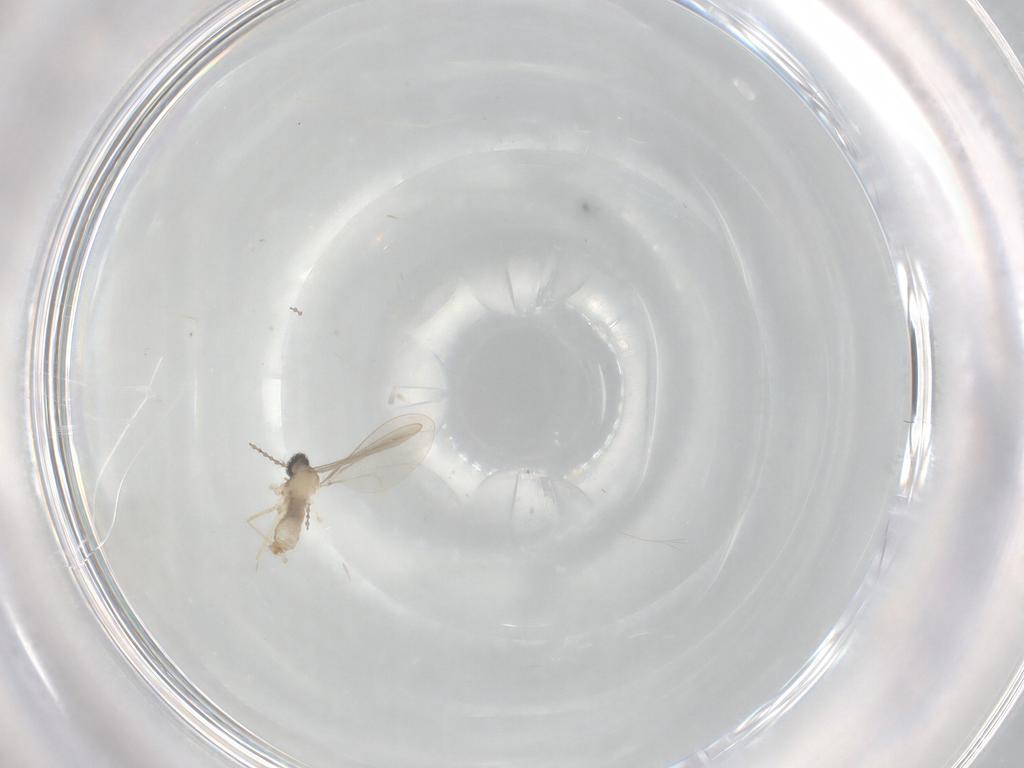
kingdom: Animalia
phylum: Arthropoda
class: Insecta
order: Diptera
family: Cecidomyiidae
